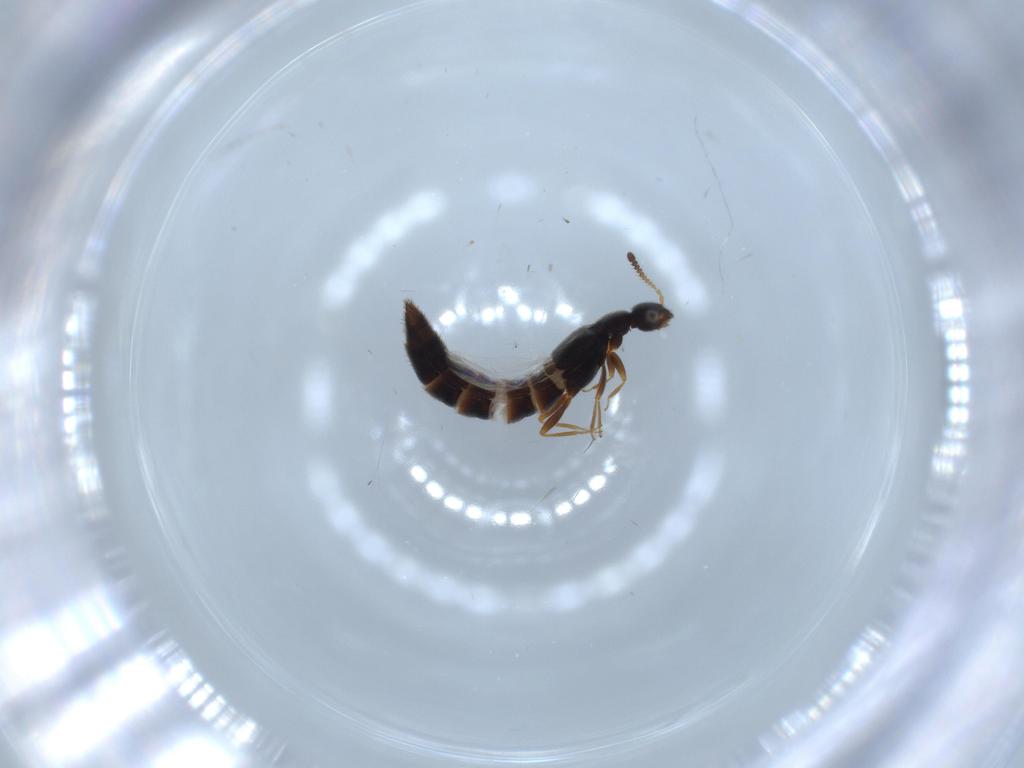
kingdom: Animalia
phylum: Arthropoda
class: Insecta
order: Coleoptera
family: Staphylinidae
